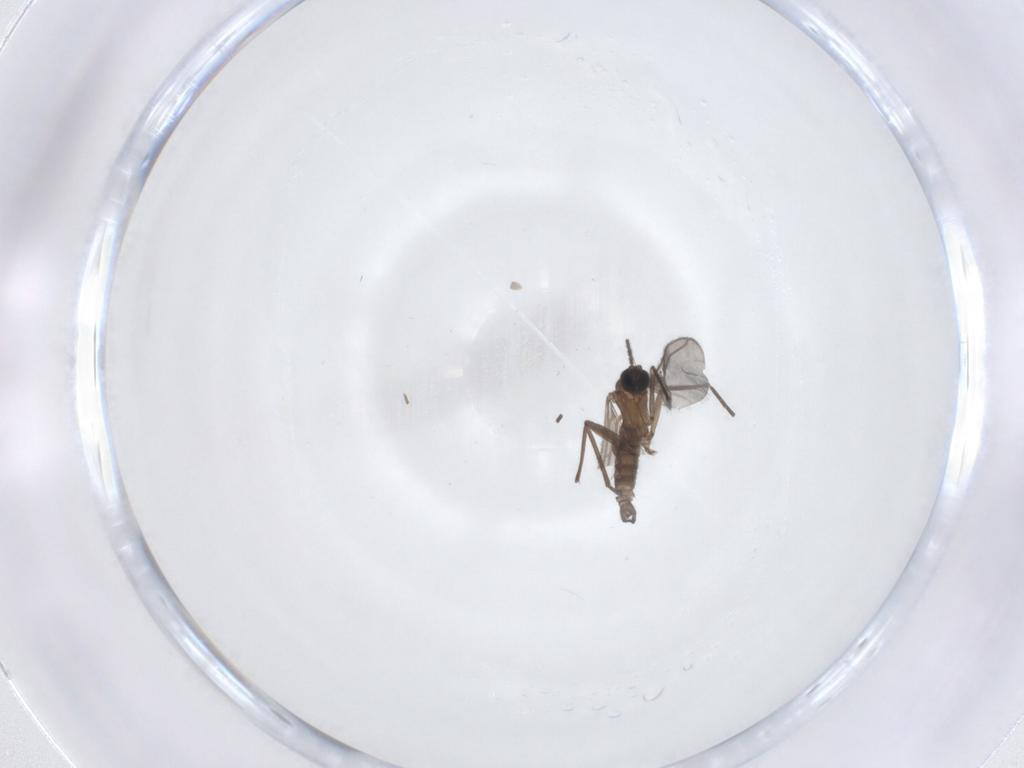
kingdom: Animalia
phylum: Arthropoda
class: Insecta
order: Diptera
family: Sciaridae
